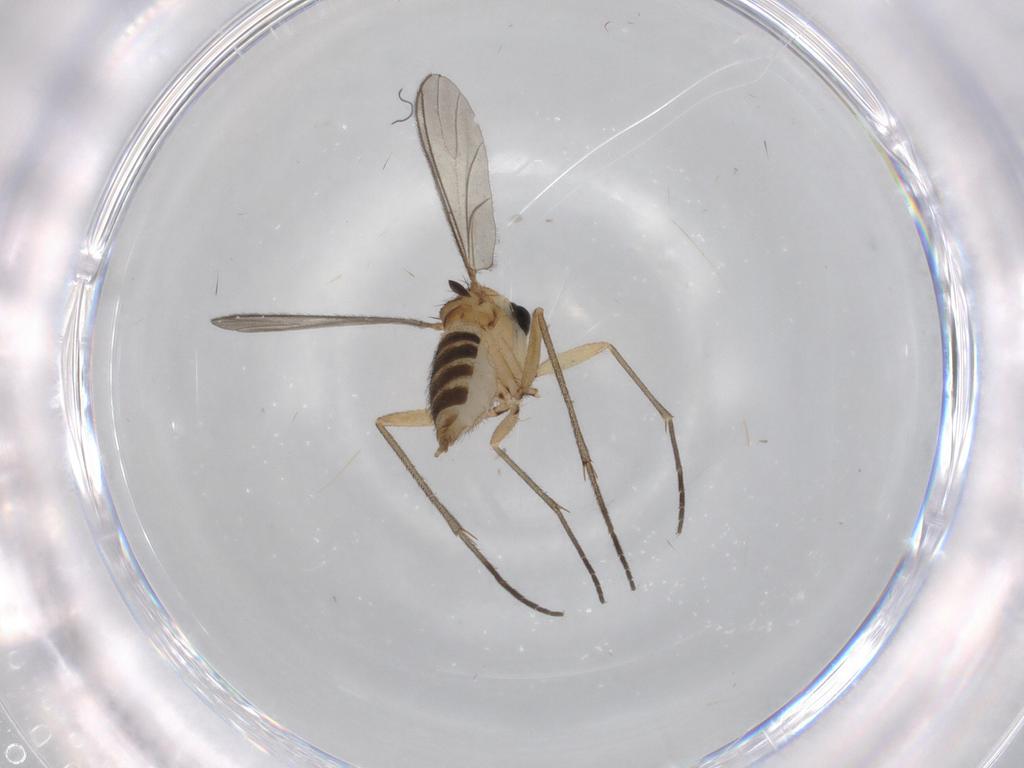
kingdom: Animalia
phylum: Arthropoda
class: Insecta
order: Diptera
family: Sciaridae
